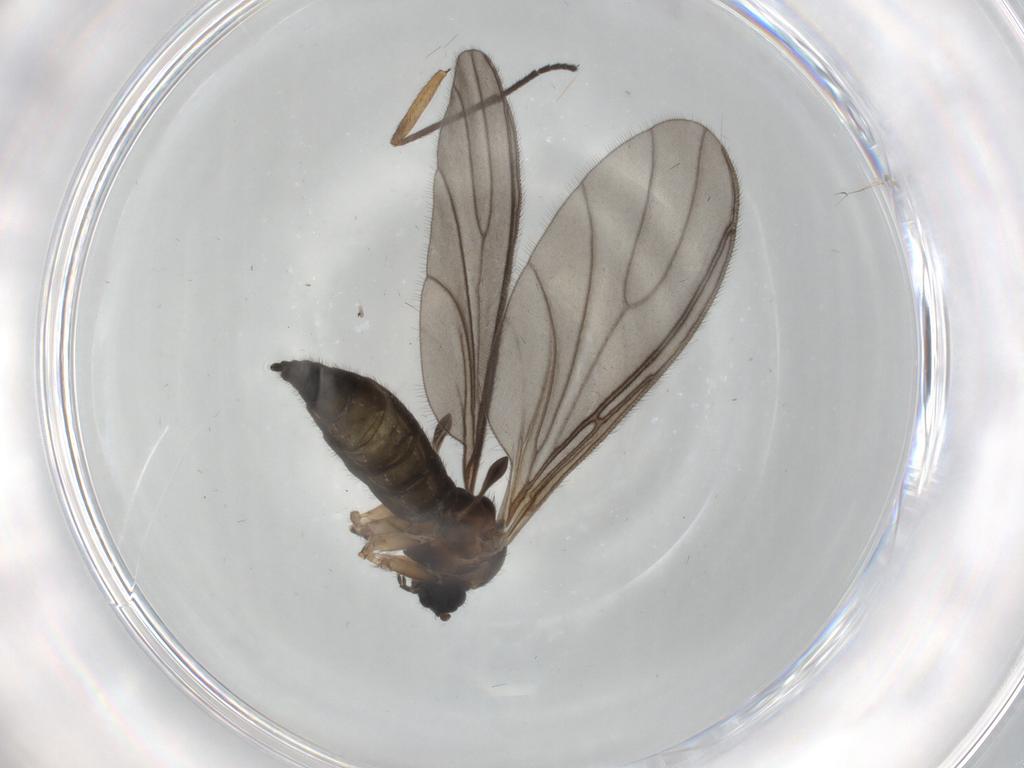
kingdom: Animalia
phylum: Arthropoda
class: Insecta
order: Diptera
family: Sciaridae
